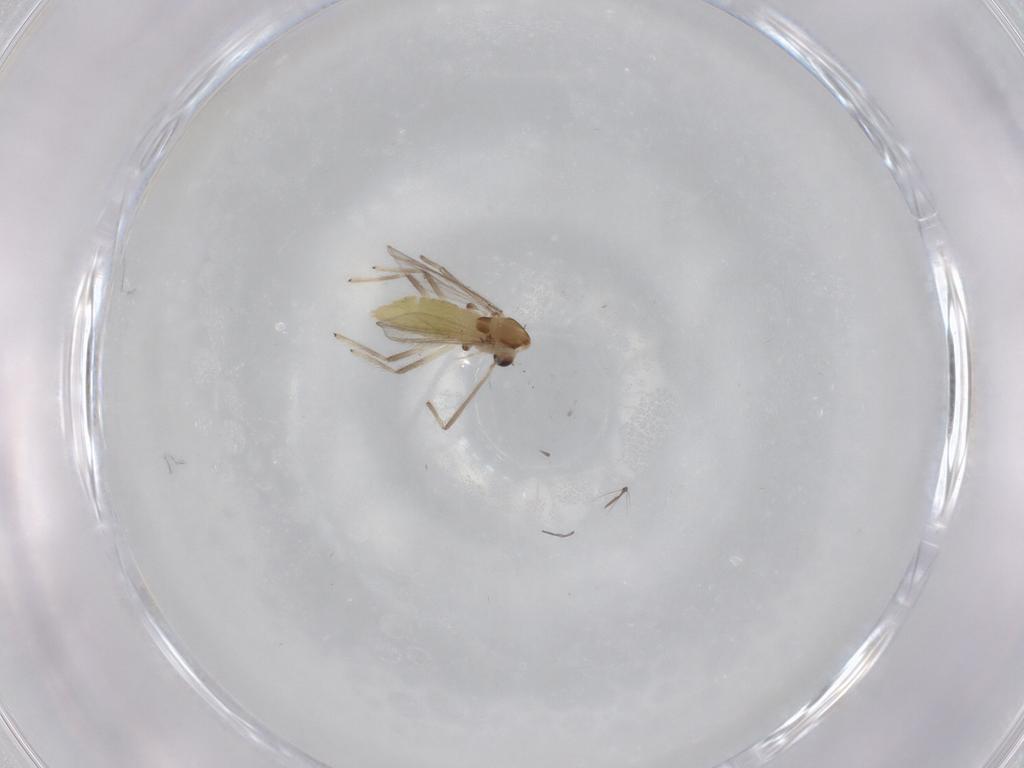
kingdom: Animalia
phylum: Arthropoda
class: Insecta
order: Diptera
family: Chironomidae
